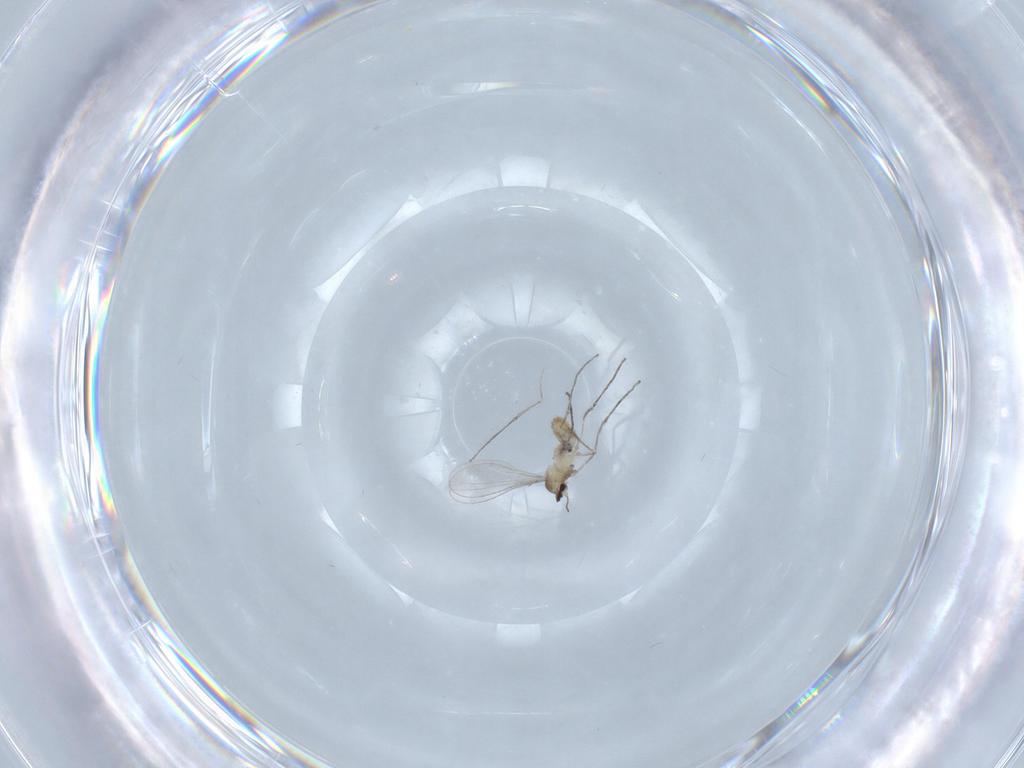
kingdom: Animalia
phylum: Arthropoda
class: Insecta
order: Diptera
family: Cecidomyiidae
